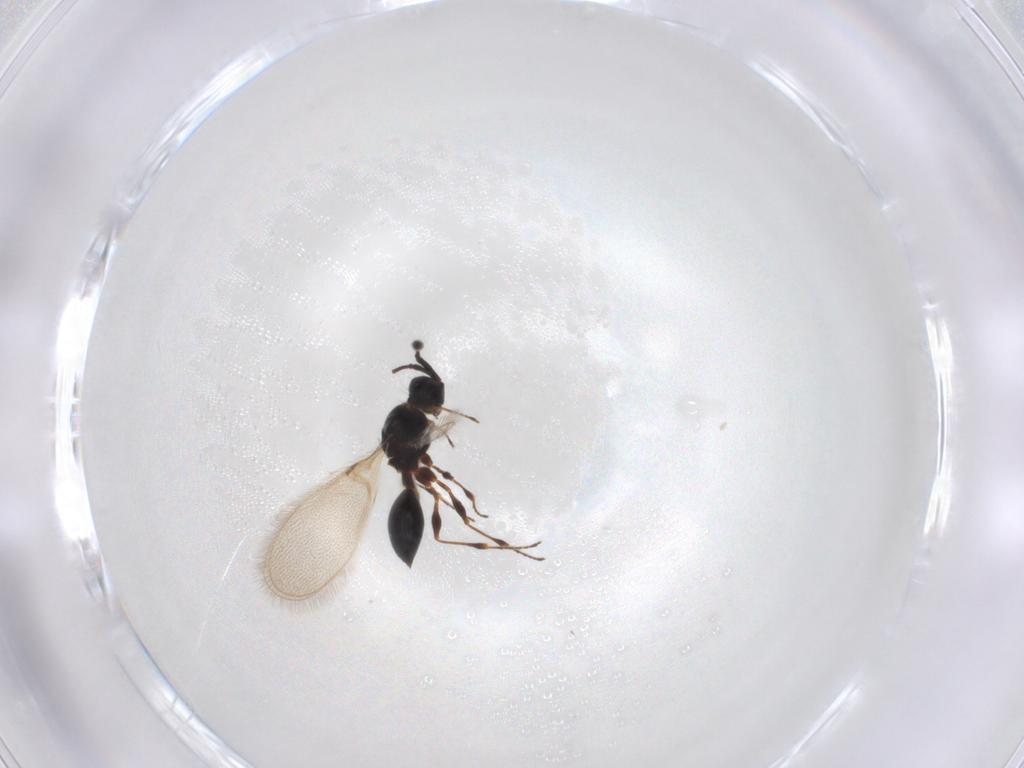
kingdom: Animalia
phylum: Arthropoda
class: Insecta
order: Hymenoptera
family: Diapriidae
